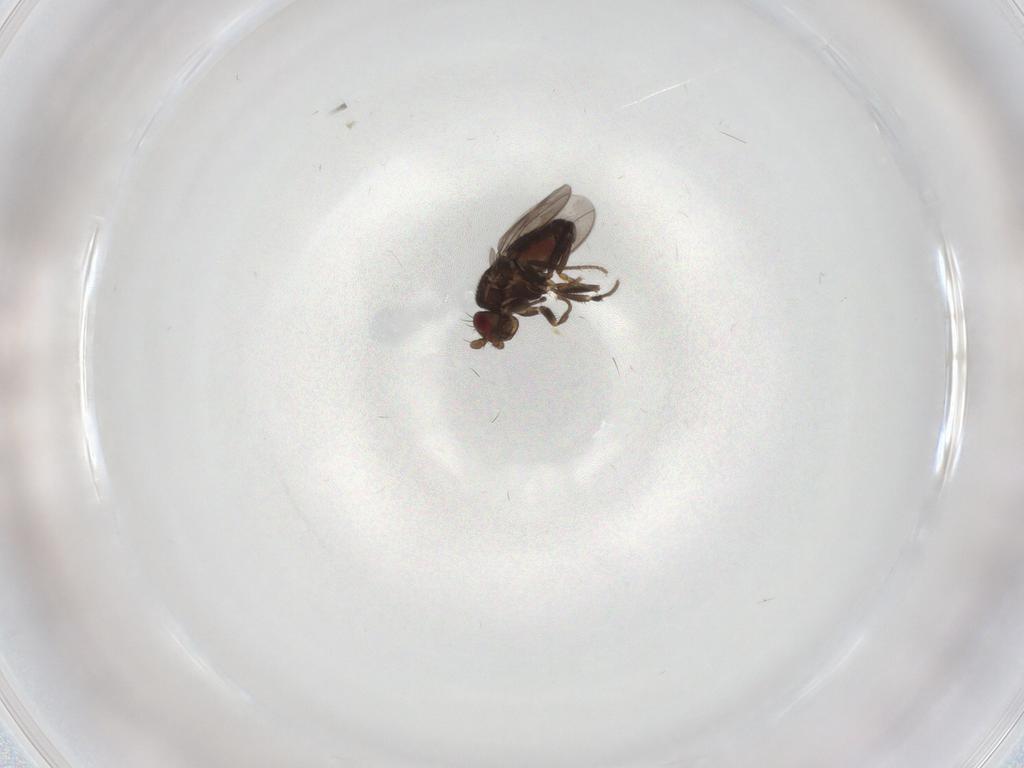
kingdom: Animalia
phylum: Arthropoda
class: Insecta
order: Diptera
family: Sphaeroceridae
